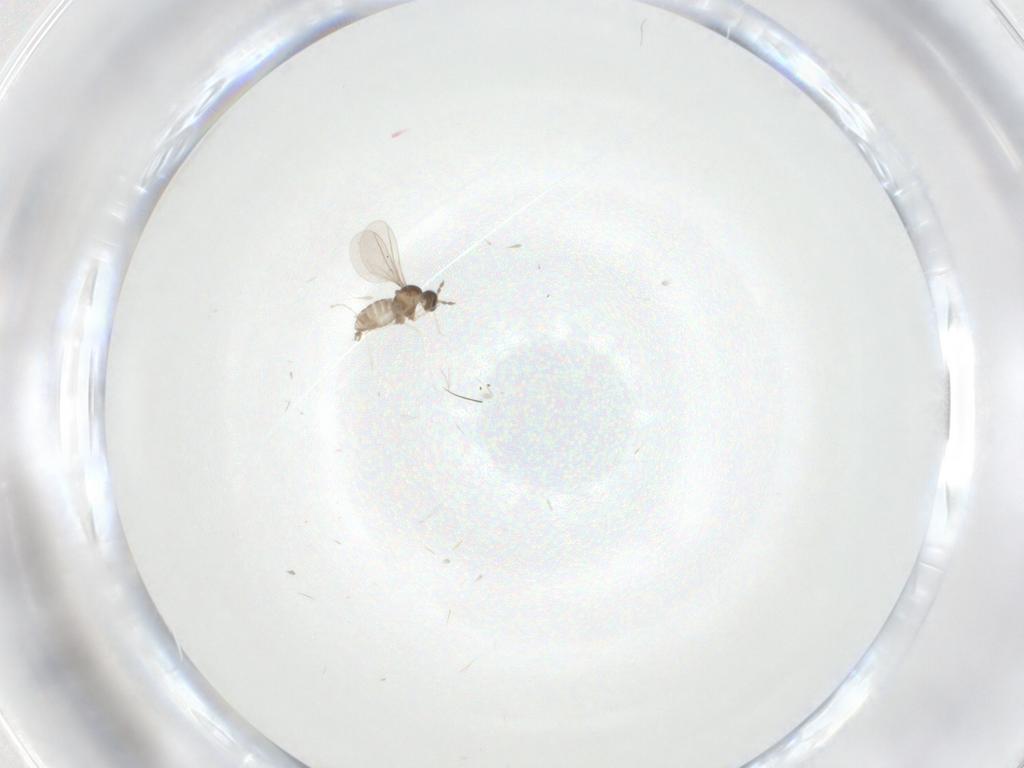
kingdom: Animalia
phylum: Arthropoda
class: Insecta
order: Diptera
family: Cecidomyiidae
